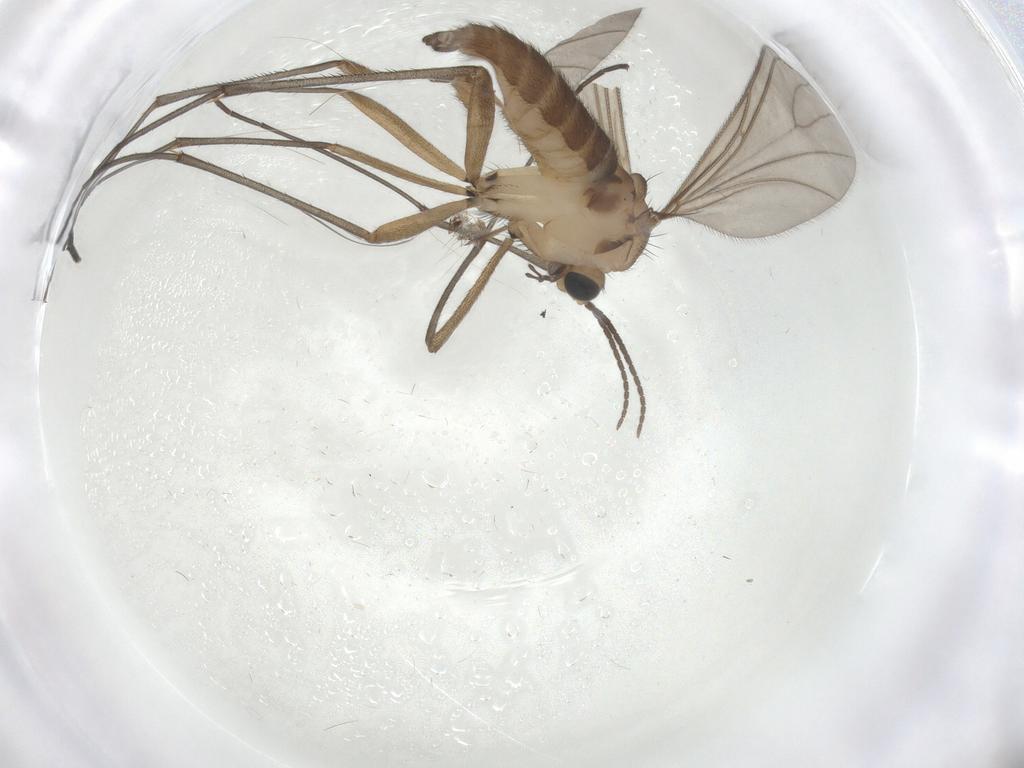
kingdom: Animalia
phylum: Arthropoda
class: Insecta
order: Diptera
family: Sciaridae
